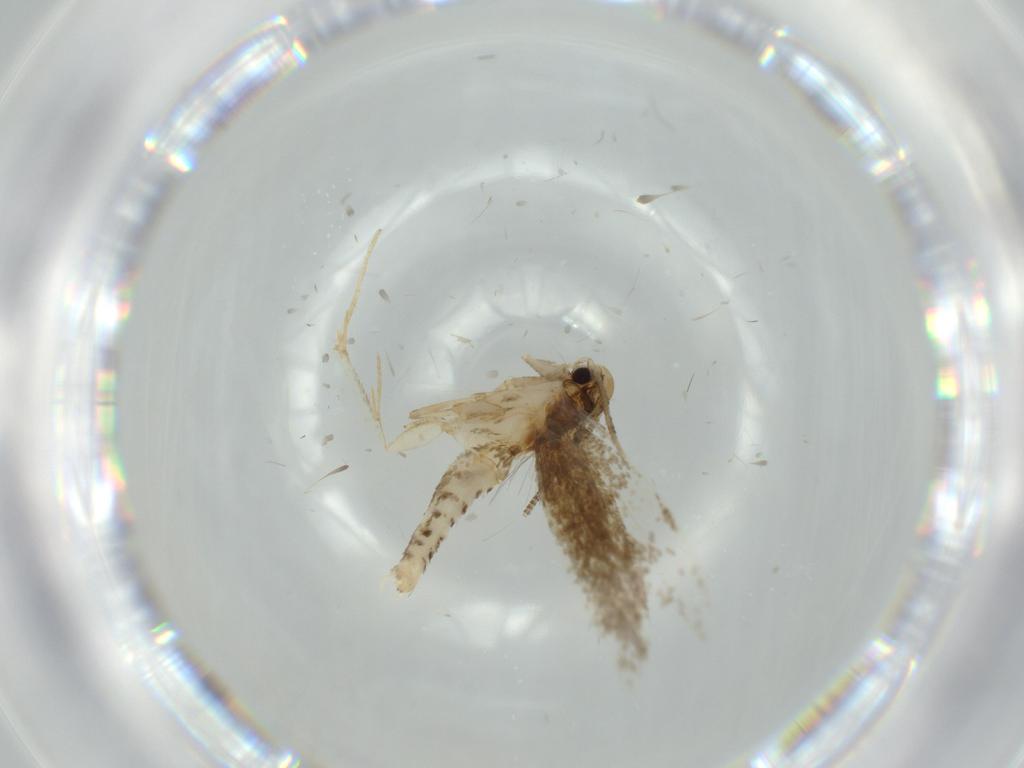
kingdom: Animalia
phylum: Arthropoda
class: Insecta
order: Lepidoptera
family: Tineidae
